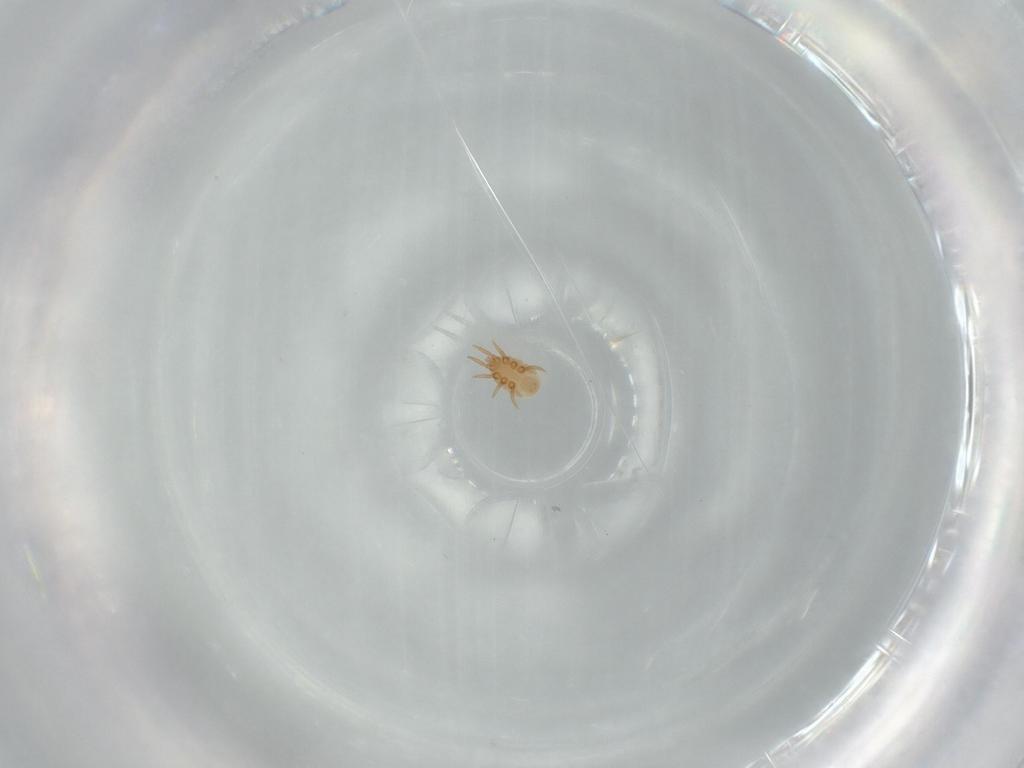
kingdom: Animalia
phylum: Arthropoda
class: Arachnida
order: Mesostigmata
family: Dinychidae
